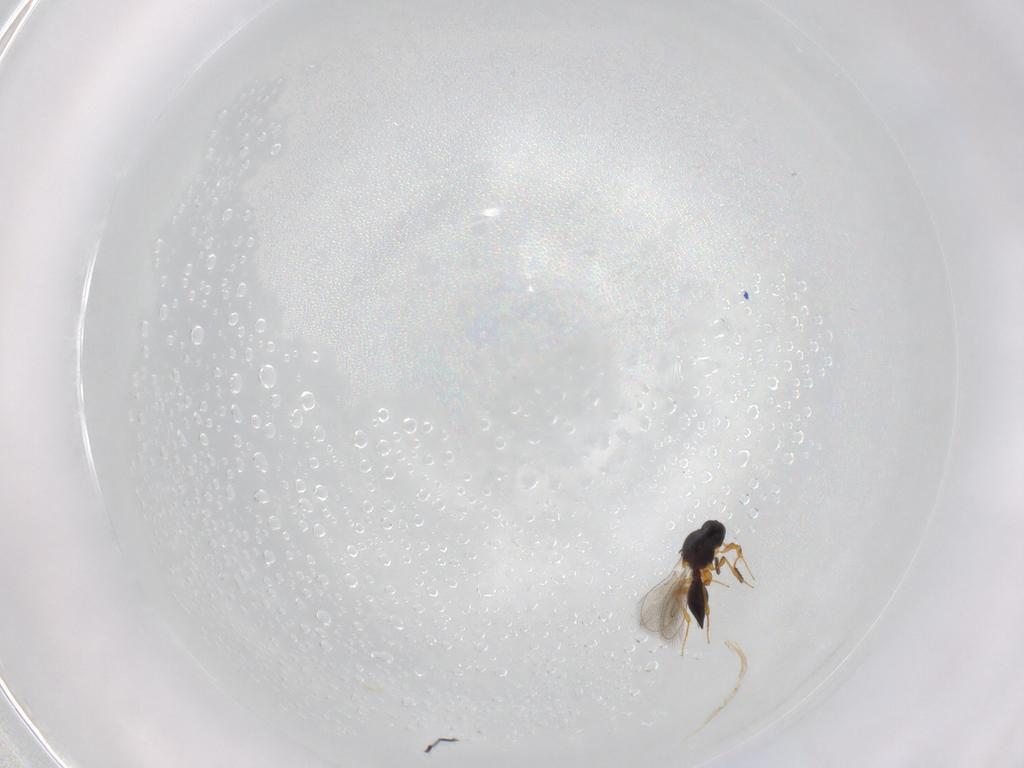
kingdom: Animalia
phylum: Arthropoda
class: Insecta
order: Hymenoptera
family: Platygastridae
